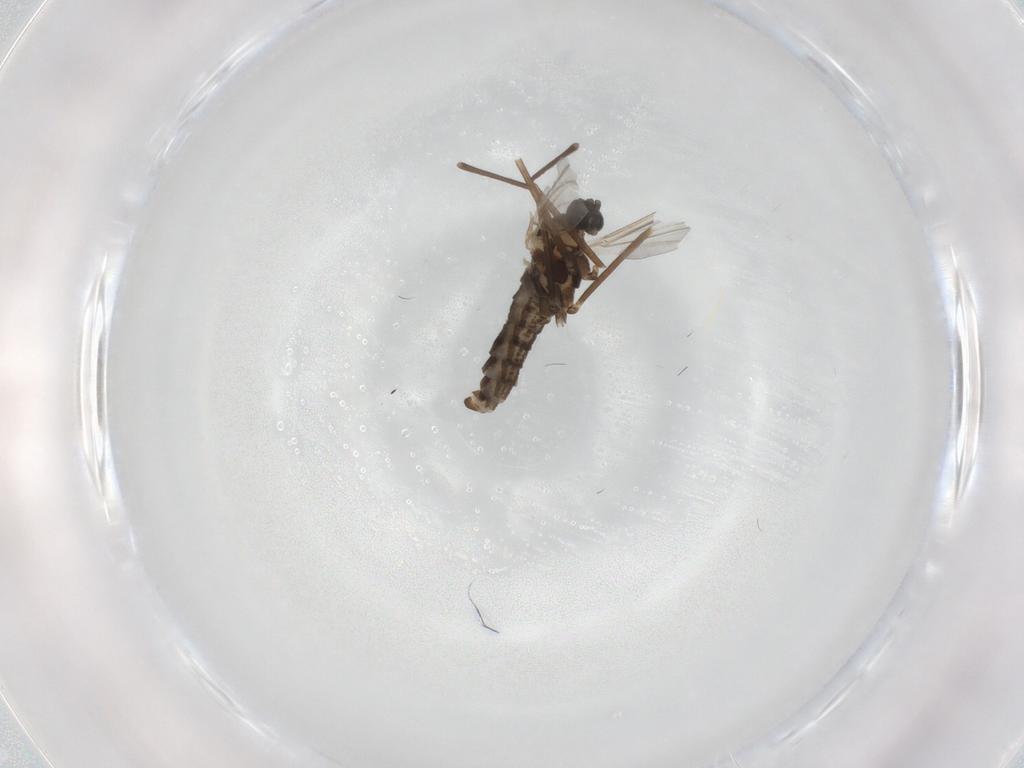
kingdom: Animalia
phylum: Arthropoda
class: Insecta
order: Diptera
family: Cecidomyiidae
